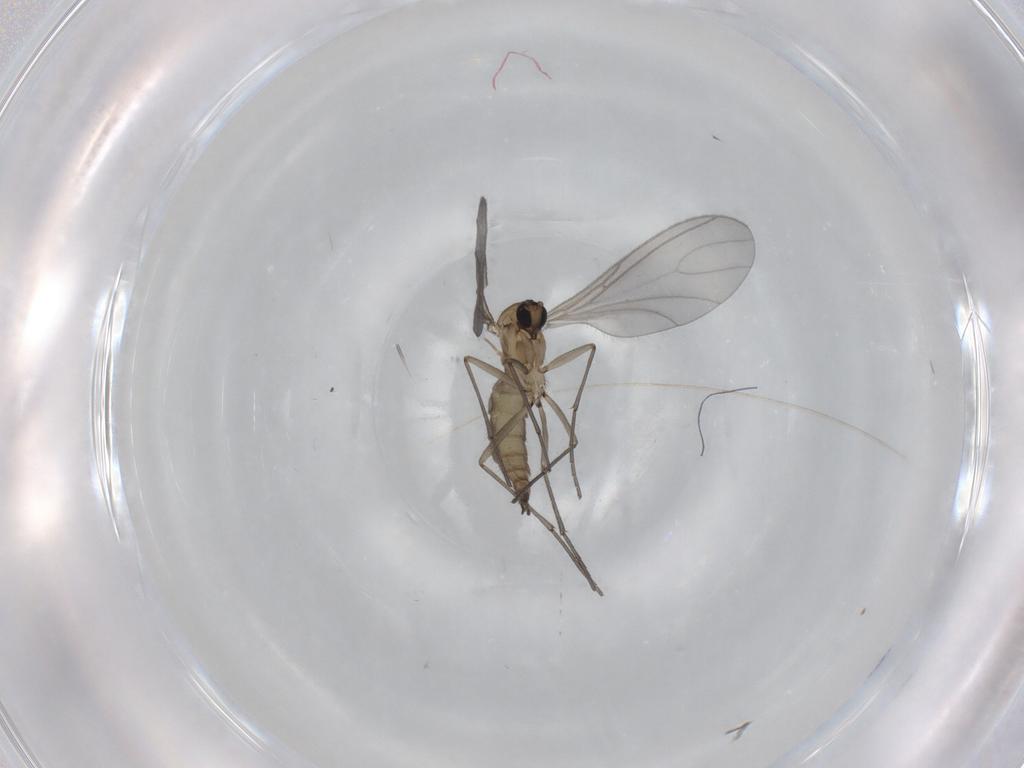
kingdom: Animalia
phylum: Arthropoda
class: Insecta
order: Diptera
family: Sciaridae
